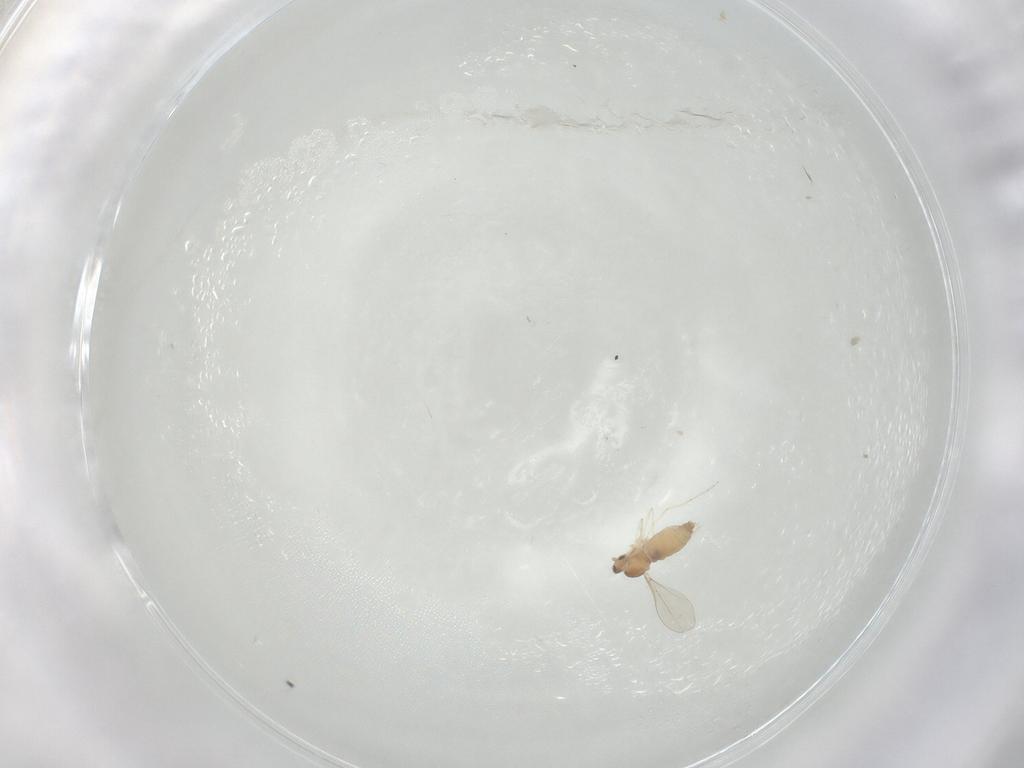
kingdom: Animalia
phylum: Arthropoda
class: Insecta
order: Diptera
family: Cecidomyiidae
